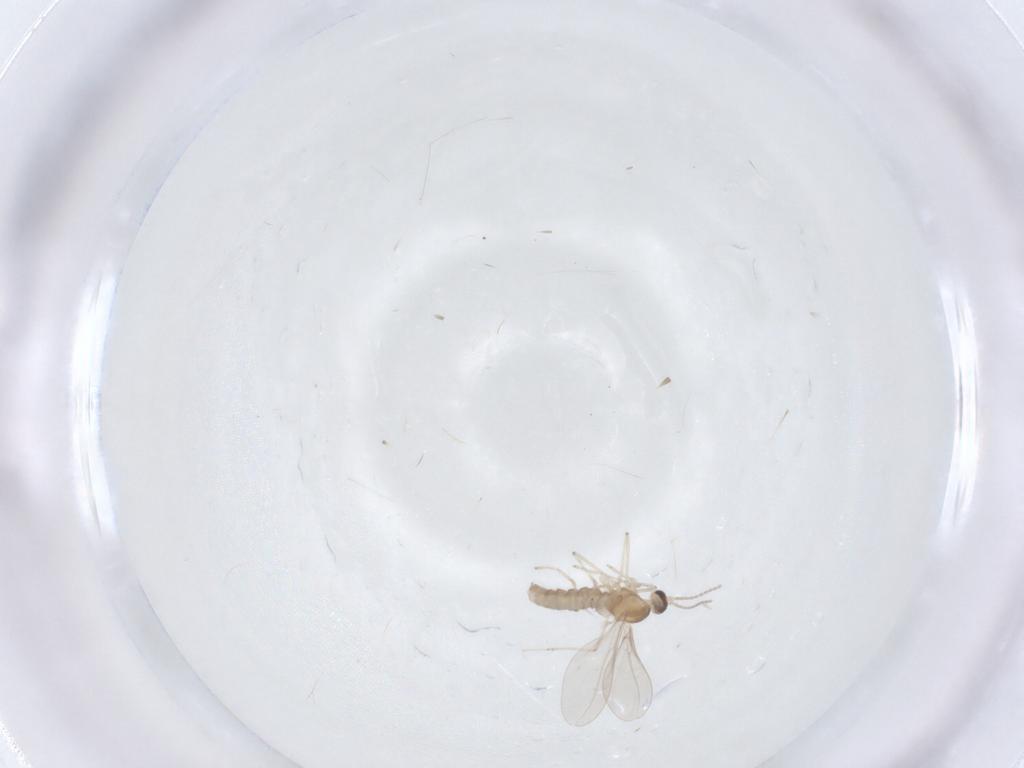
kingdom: Animalia
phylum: Arthropoda
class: Insecta
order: Diptera
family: Cecidomyiidae
